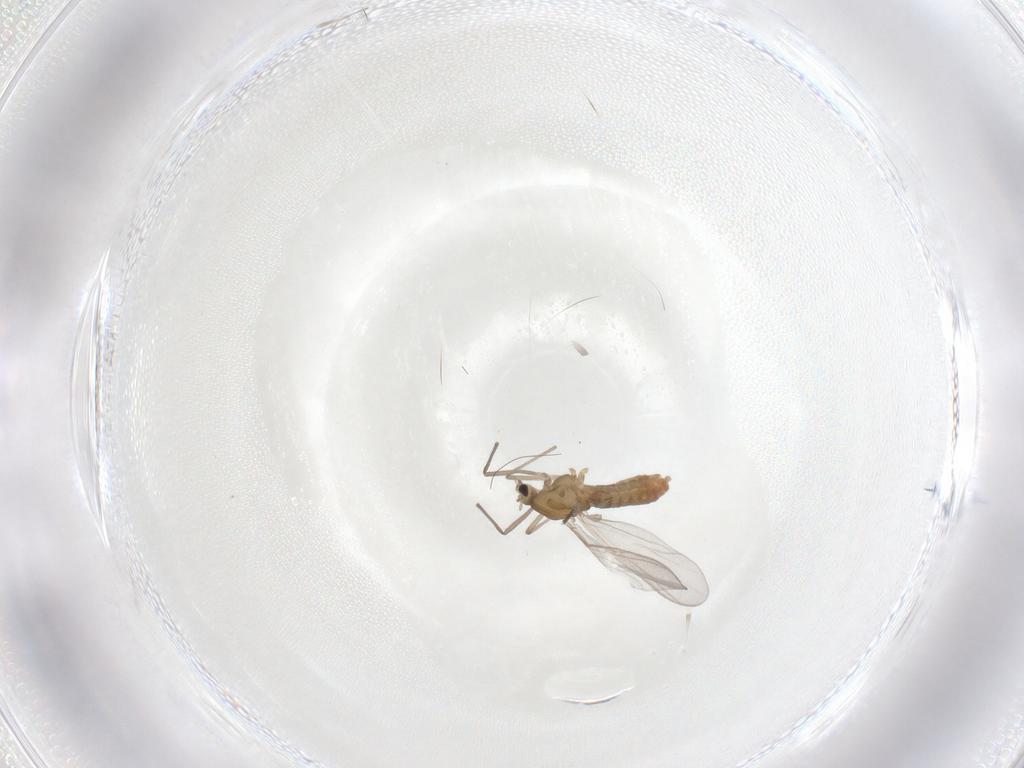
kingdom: Animalia
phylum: Arthropoda
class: Insecta
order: Diptera
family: Chironomidae
